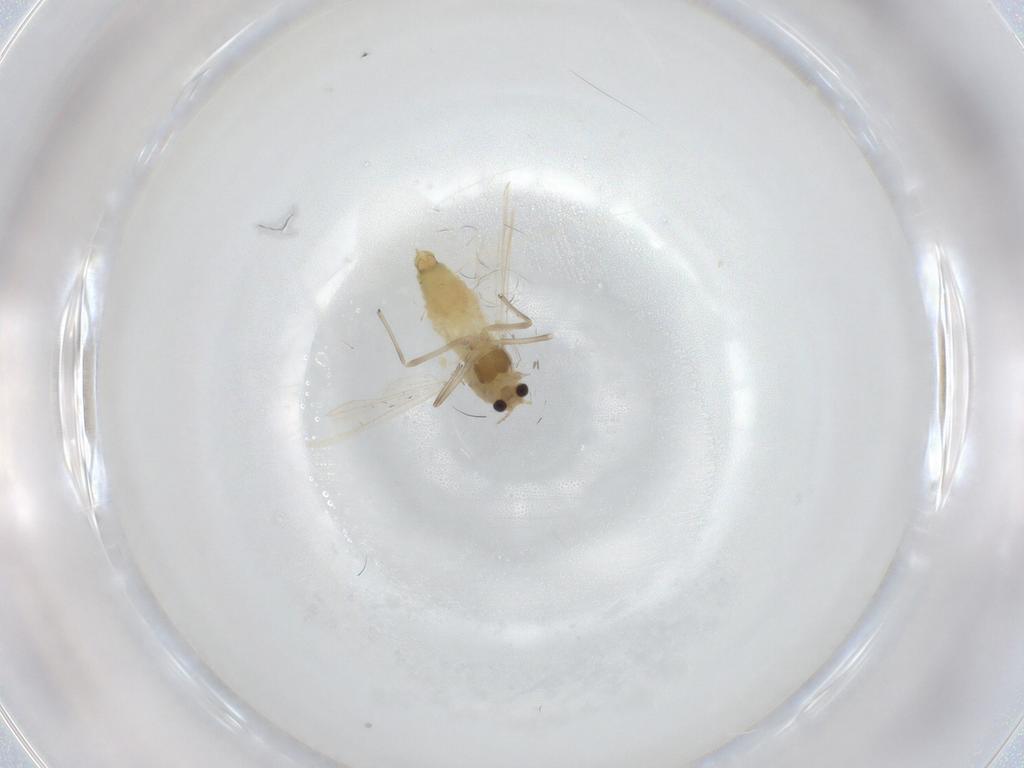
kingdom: Animalia
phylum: Arthropoda
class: Insecta
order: Diptera
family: Chironomidae
